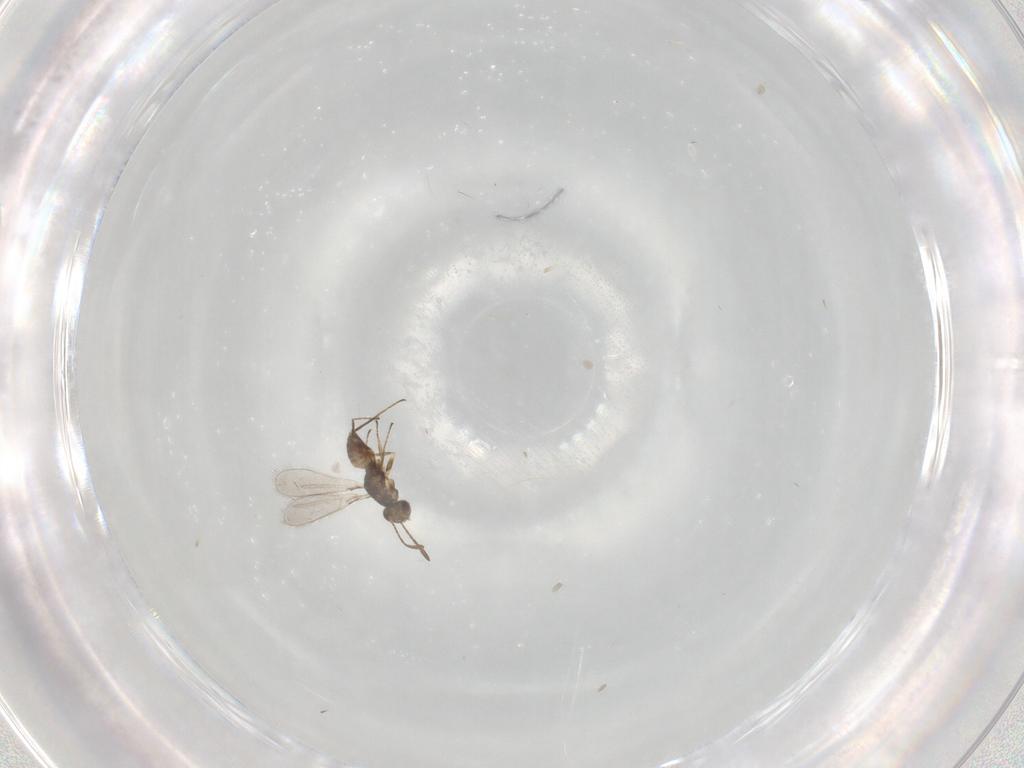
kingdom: Animalia
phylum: Arthropoda
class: Insecta
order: Hymenoptera
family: Mymaridae
